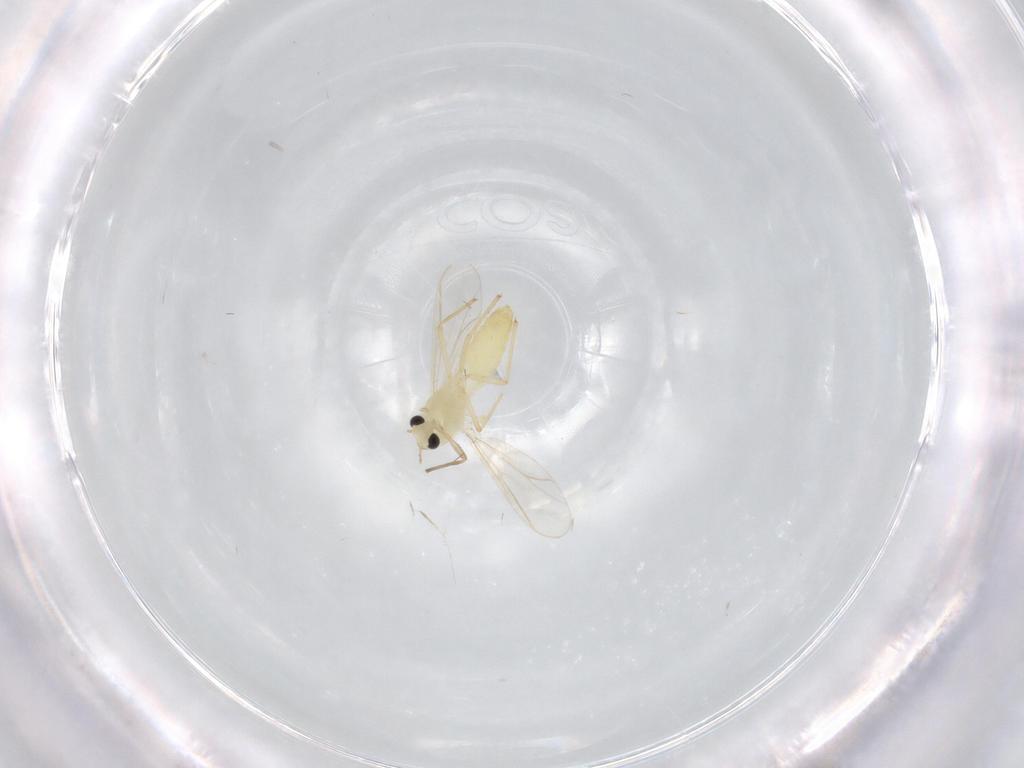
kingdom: Animalia
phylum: Arthropoda
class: Insecta
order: Diptera
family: Chironomidae
